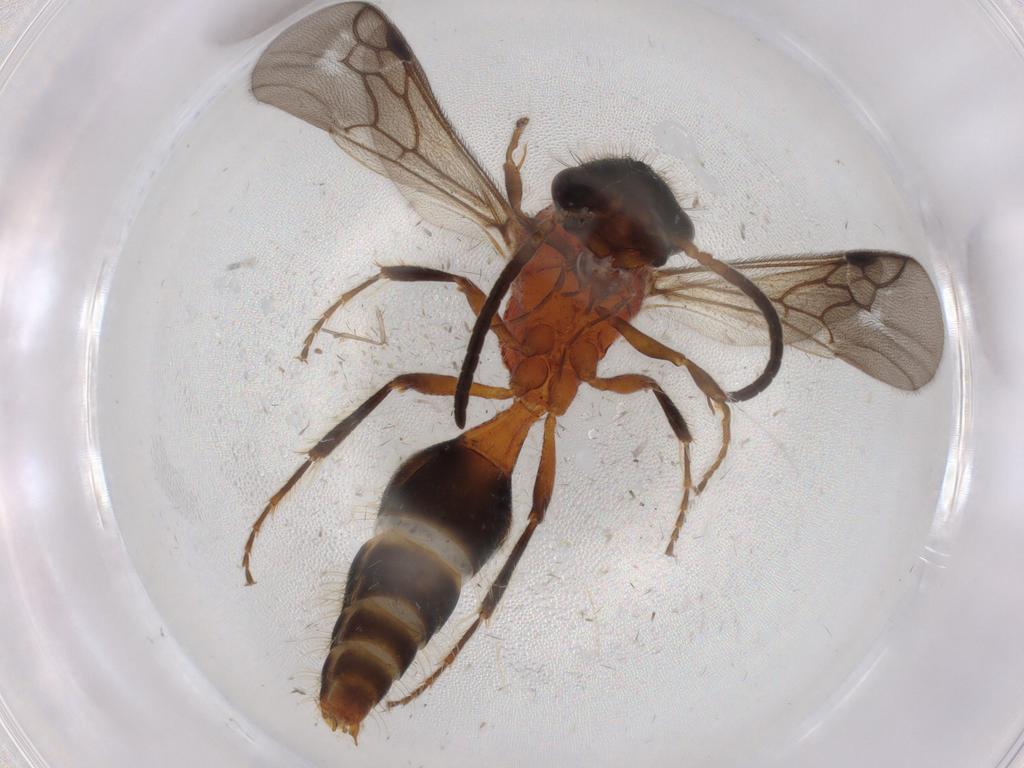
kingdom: Animalia
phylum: Arthropoda
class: Insecta
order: Hymenoptera
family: Mutillidae
